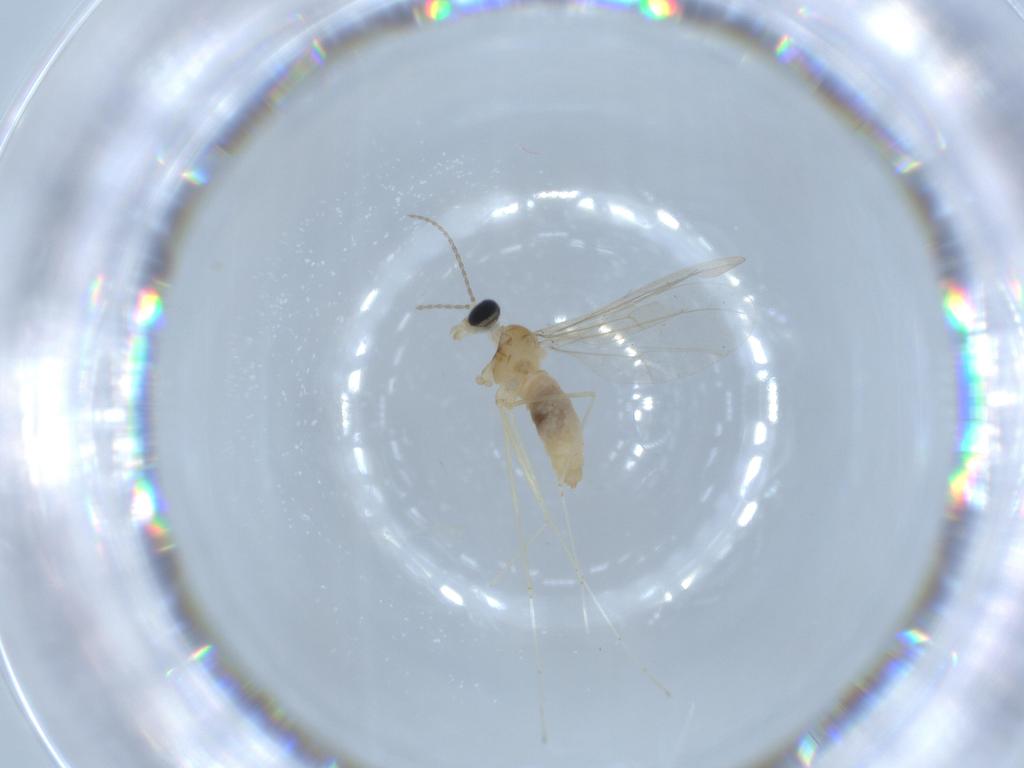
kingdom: Animalia
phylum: Arthropoda
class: Insecta
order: Diptera
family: Cecidomyiidae
